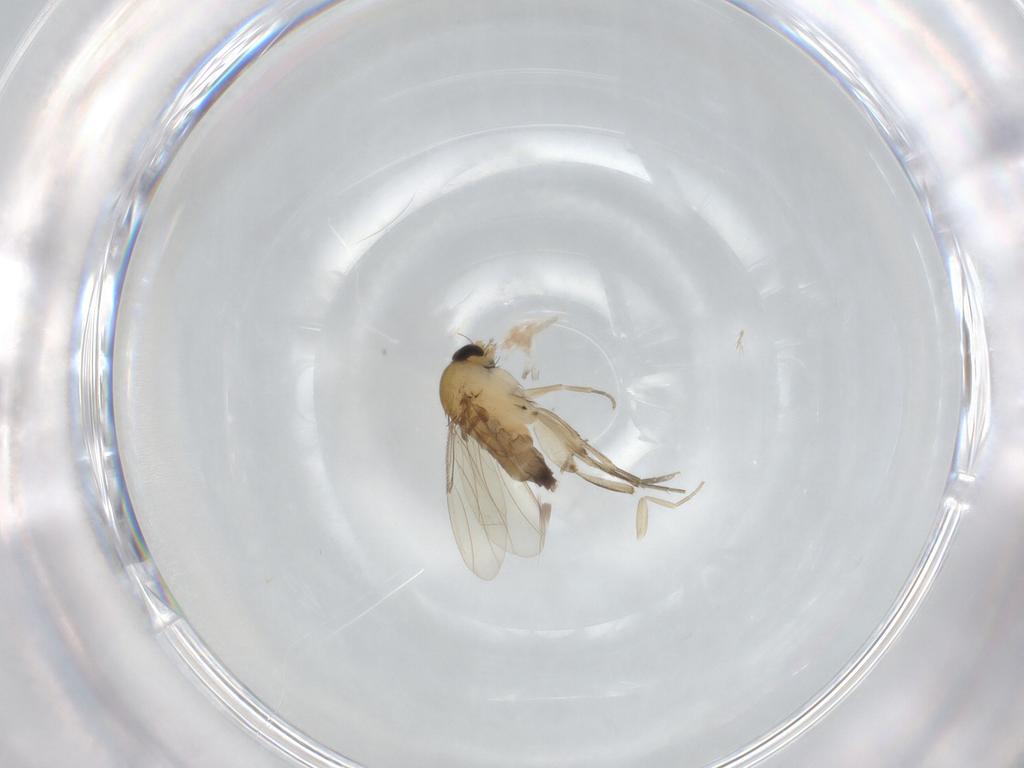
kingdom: Animalia
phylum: Arthropoda
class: Insecta
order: Diptera
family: Phoridae
